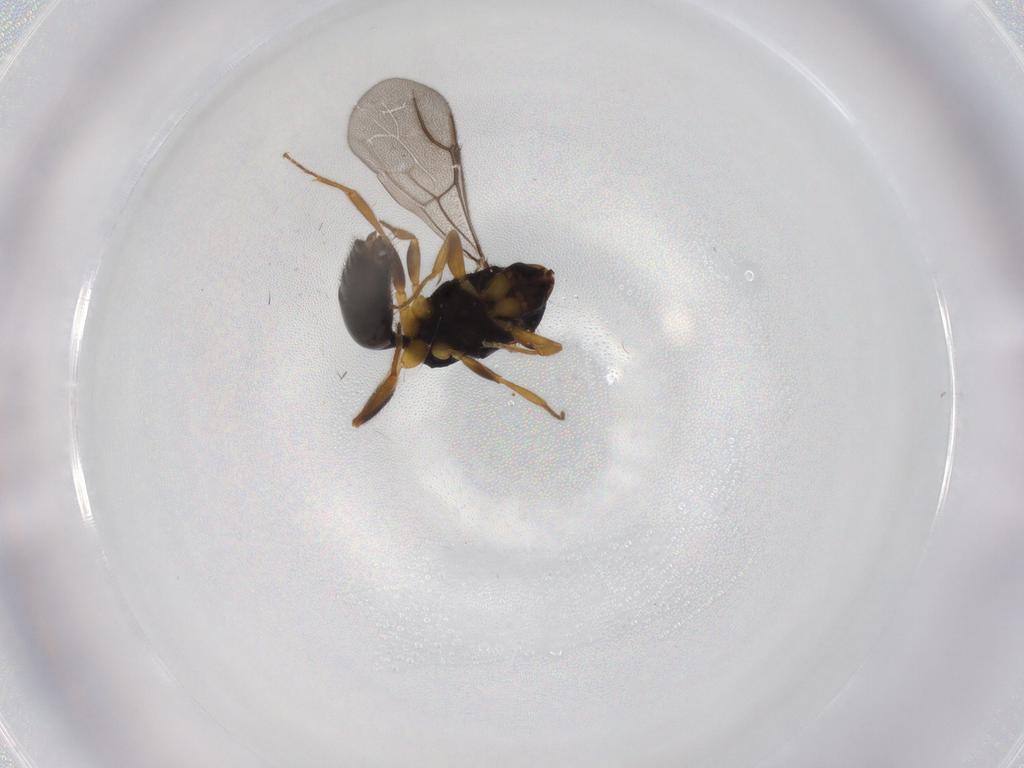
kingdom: Animalia
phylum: Arthropoda
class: Insecta
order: Hymenoptera
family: Bethylidae
